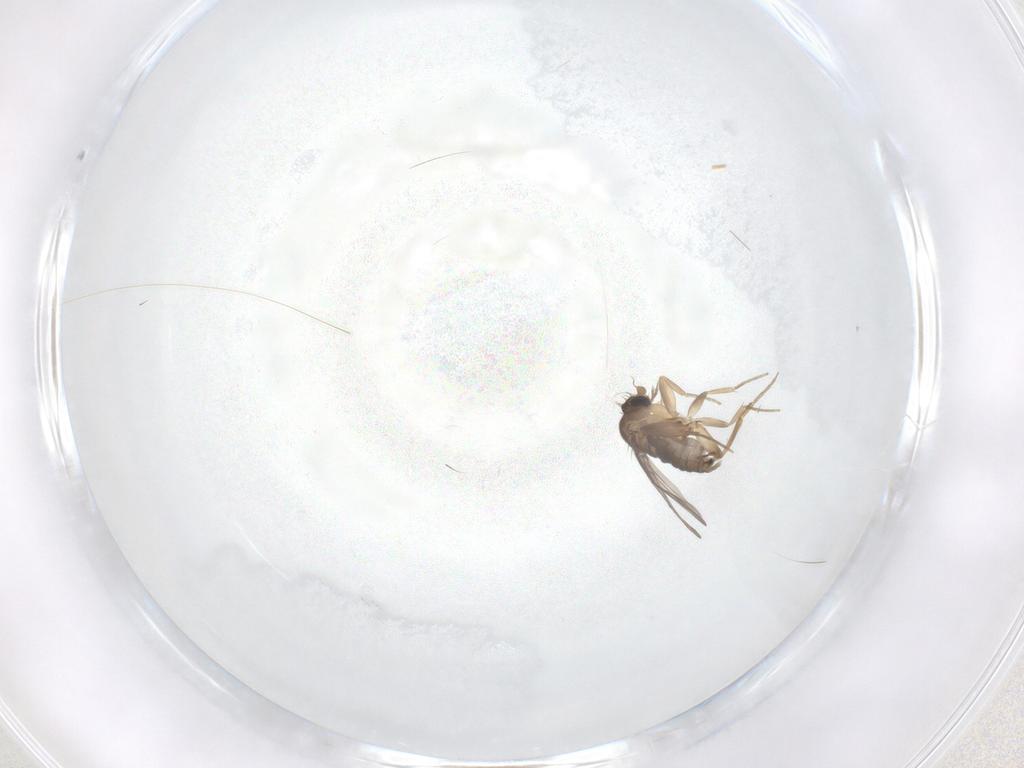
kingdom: Animalia
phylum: Arthropoda
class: Insecta
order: Diptera
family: Phoridae
